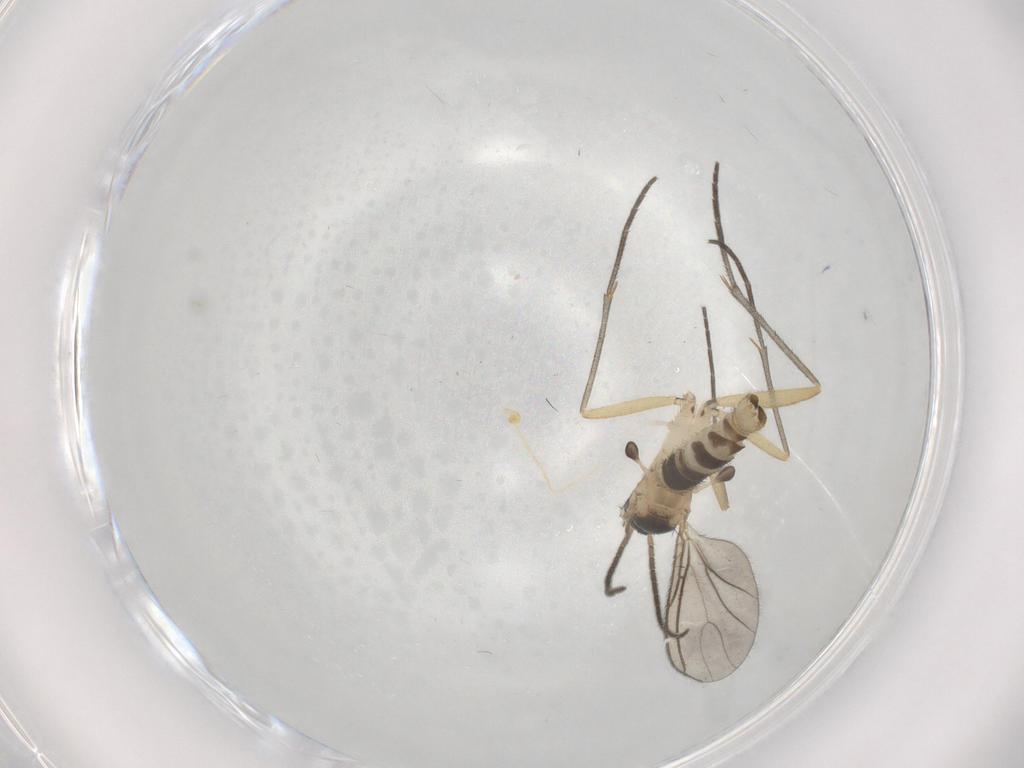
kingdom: Animalia
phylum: Arthropoda
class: Insecta
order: Diptera
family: Sciaridae
